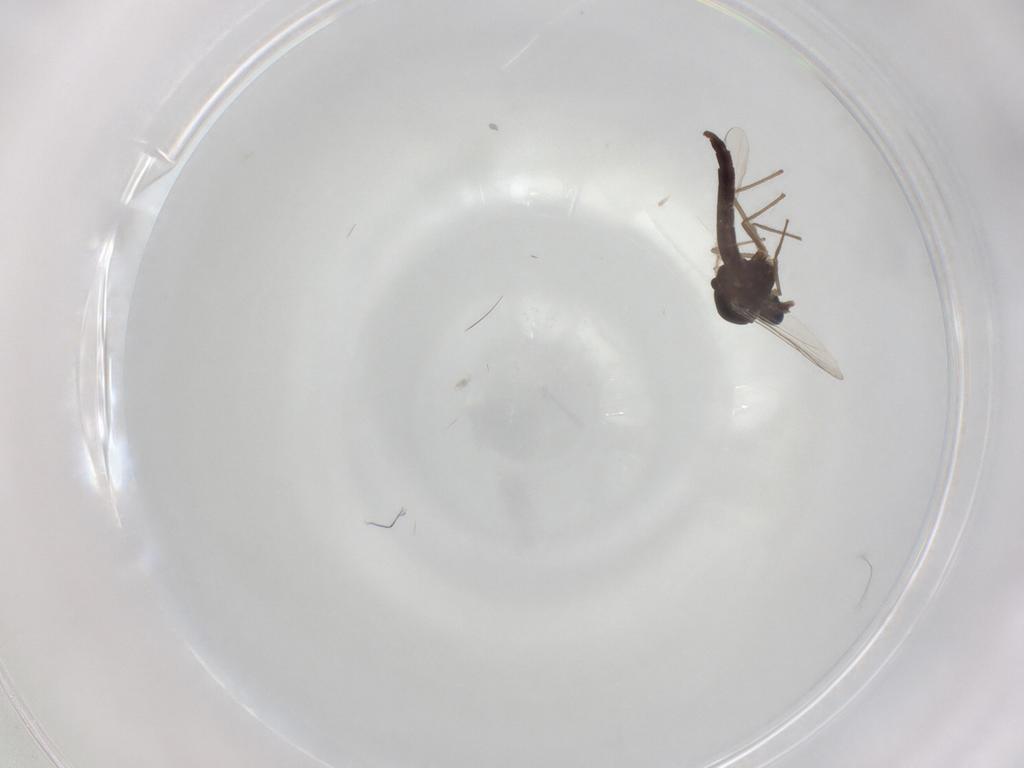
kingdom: Animalia
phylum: Arthropoda
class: Insecta
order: Diptera
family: Chironomidae
